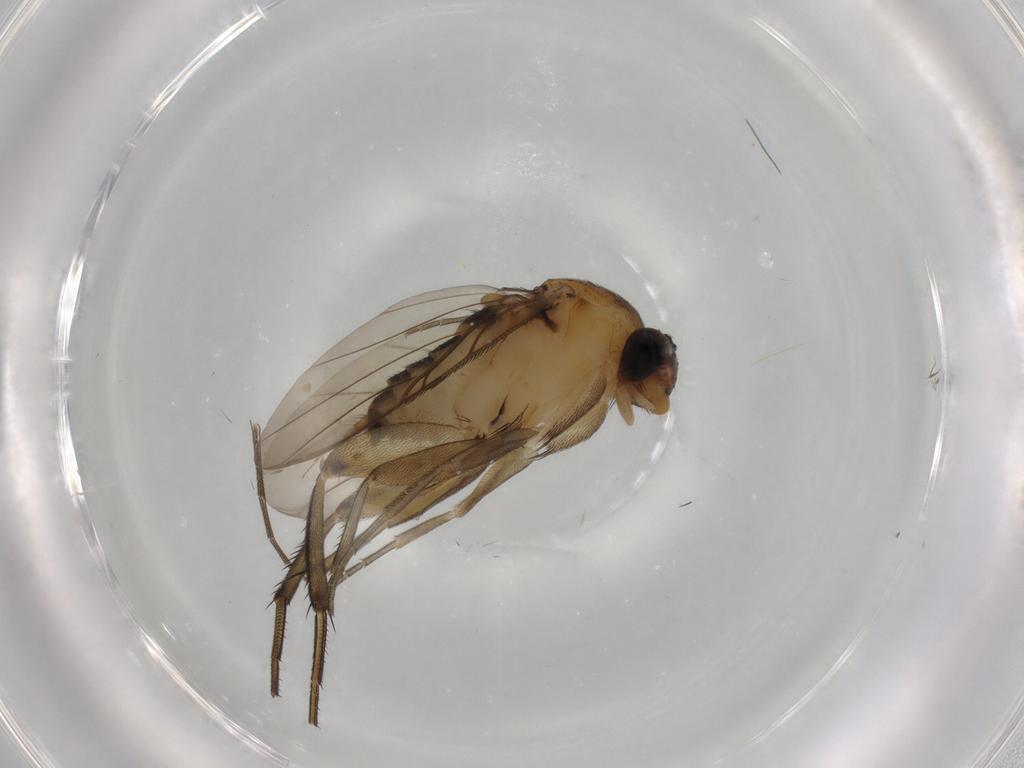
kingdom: Animalia
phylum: Arthropoda
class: Insecta
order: Diptera
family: Phoridae
